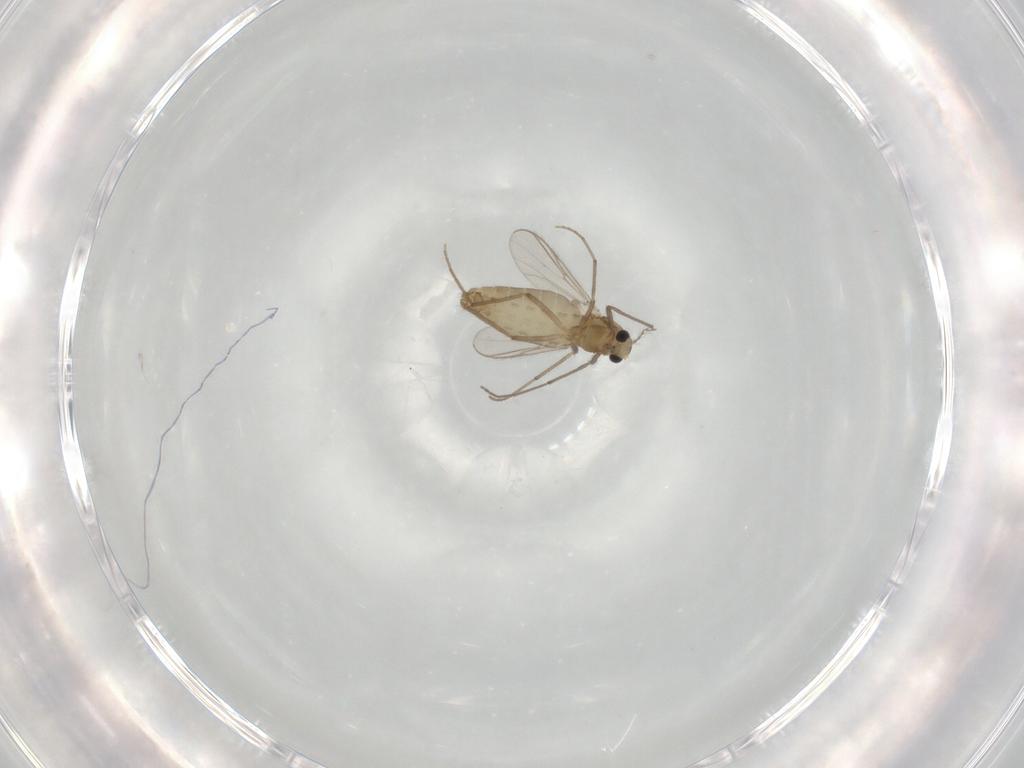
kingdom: Animalia
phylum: Arthropoda
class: Insecta
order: Diptera
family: Chironomidae
